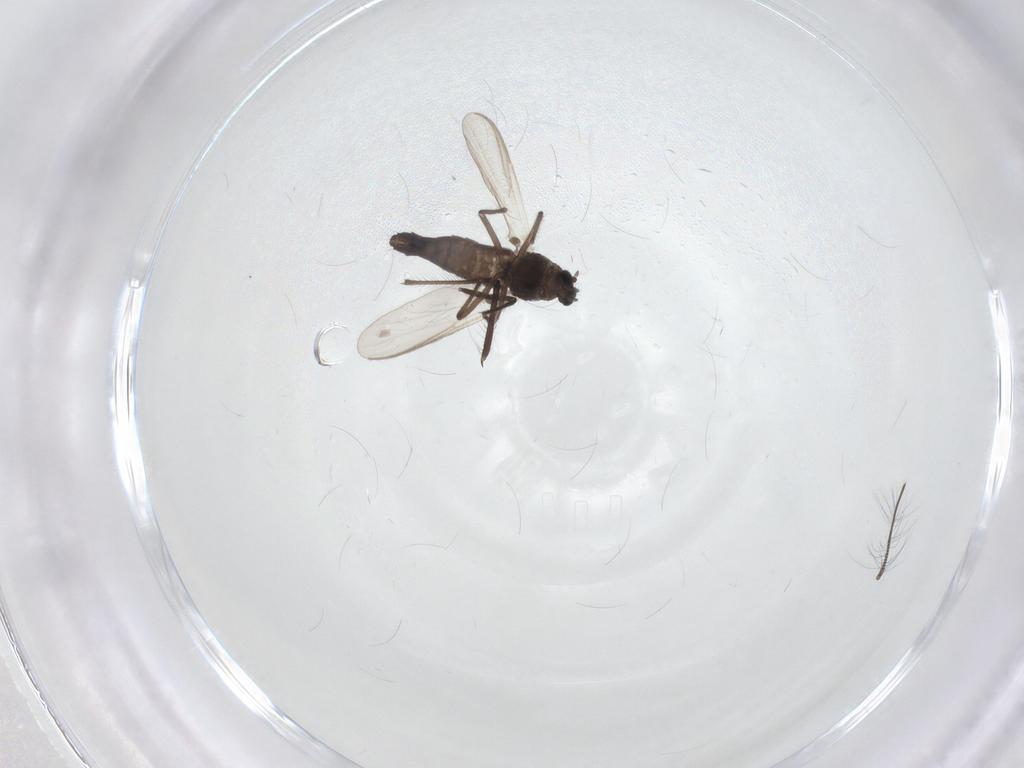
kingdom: Animalia
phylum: Arthropoda
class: Insecta
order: Diptera
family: Chironomidae
